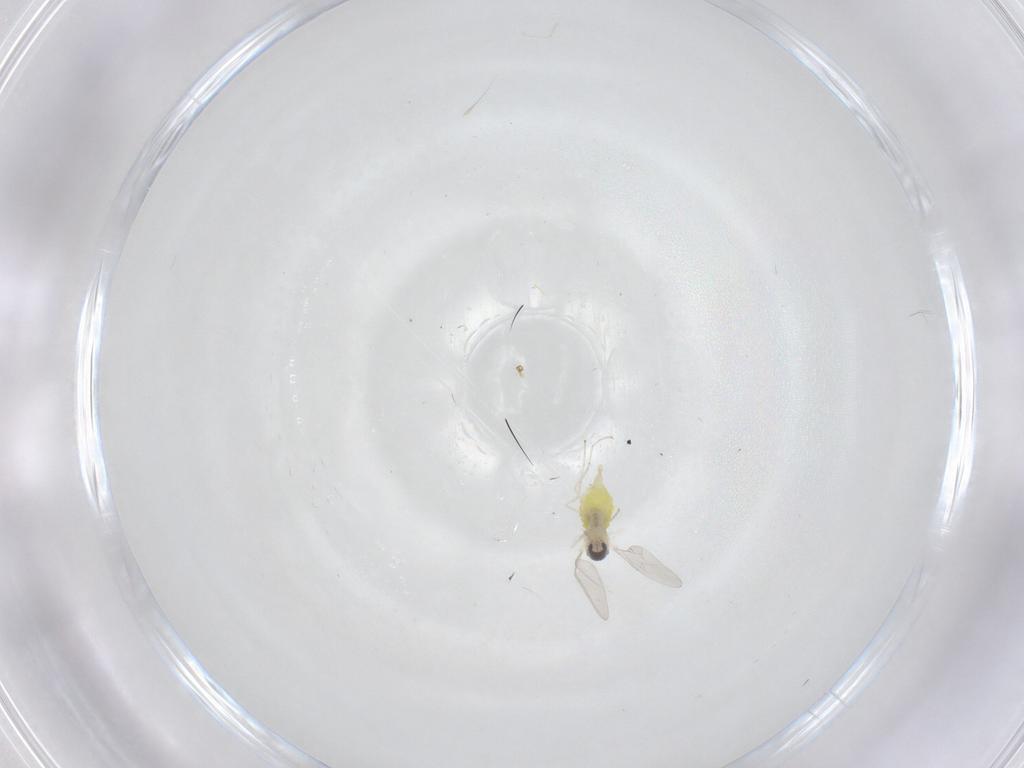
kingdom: Animalia
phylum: Arthropoda
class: Insecta
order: Diptera
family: Cecidomyiidae
